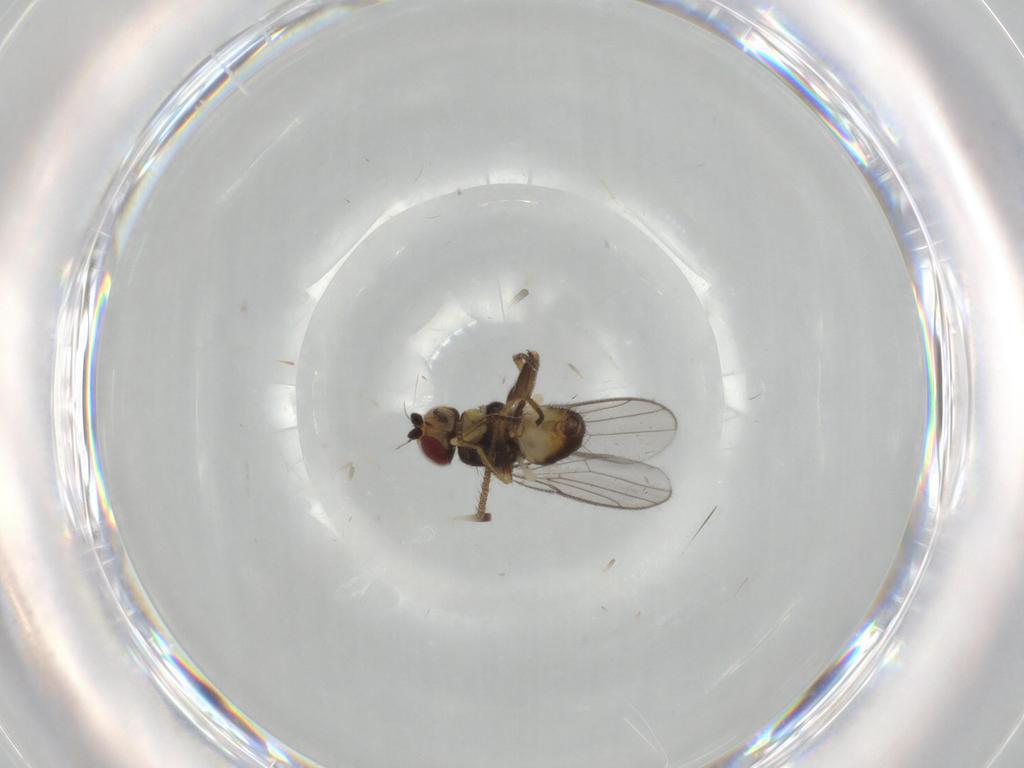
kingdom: Animalia
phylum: Arthropoda
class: Insecta
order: Diptera
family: Chloropidae
